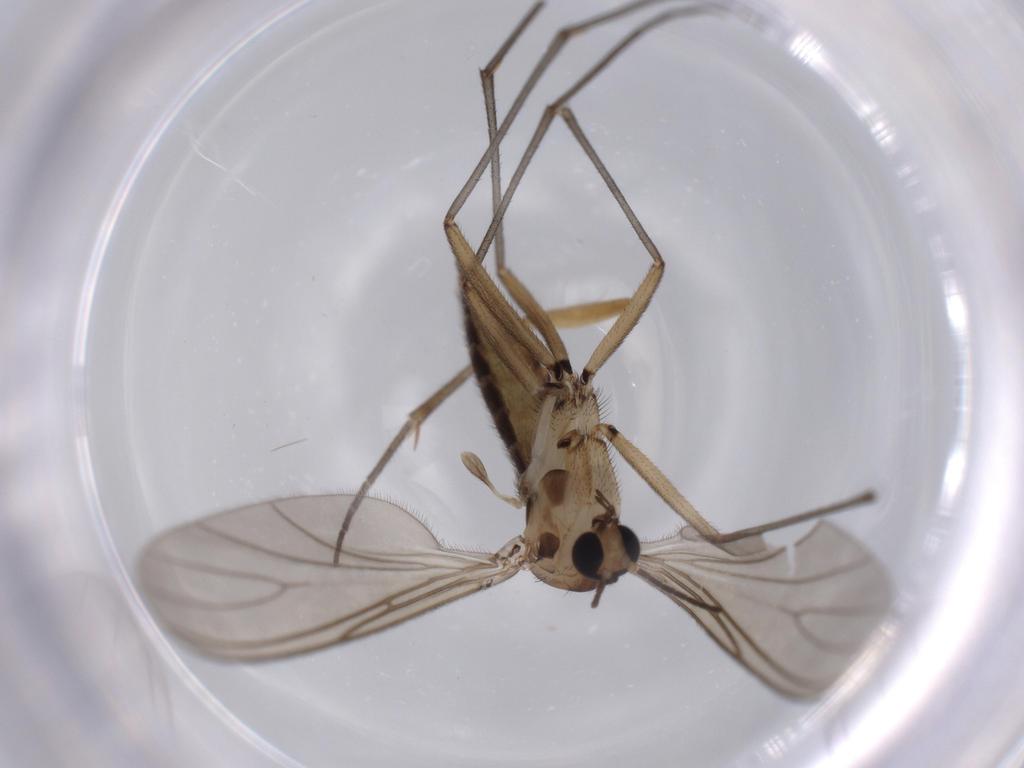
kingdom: Animalia
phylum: Arthropoda
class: Insecta
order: Diptera
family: Sciaridae
